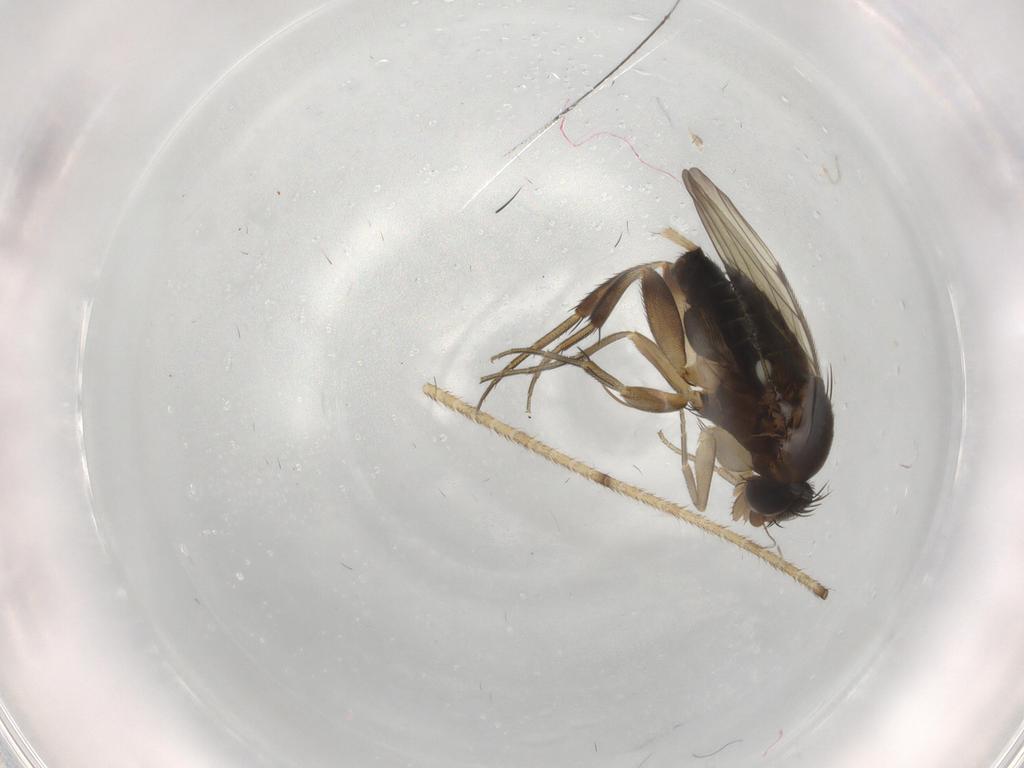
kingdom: Animalia
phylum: Arthropoda
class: Insecta
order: Diptera
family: Phoridae
